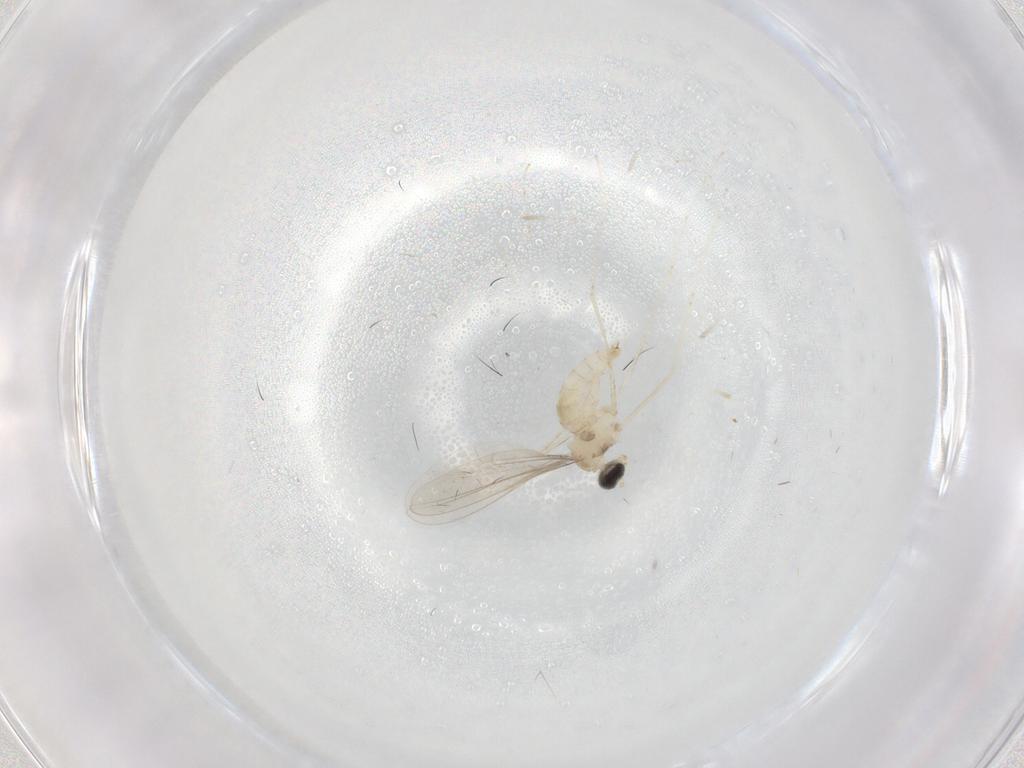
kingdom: Animalia
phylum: Arthropoda
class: Insecta
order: Diptera
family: Cecidomyiidae
